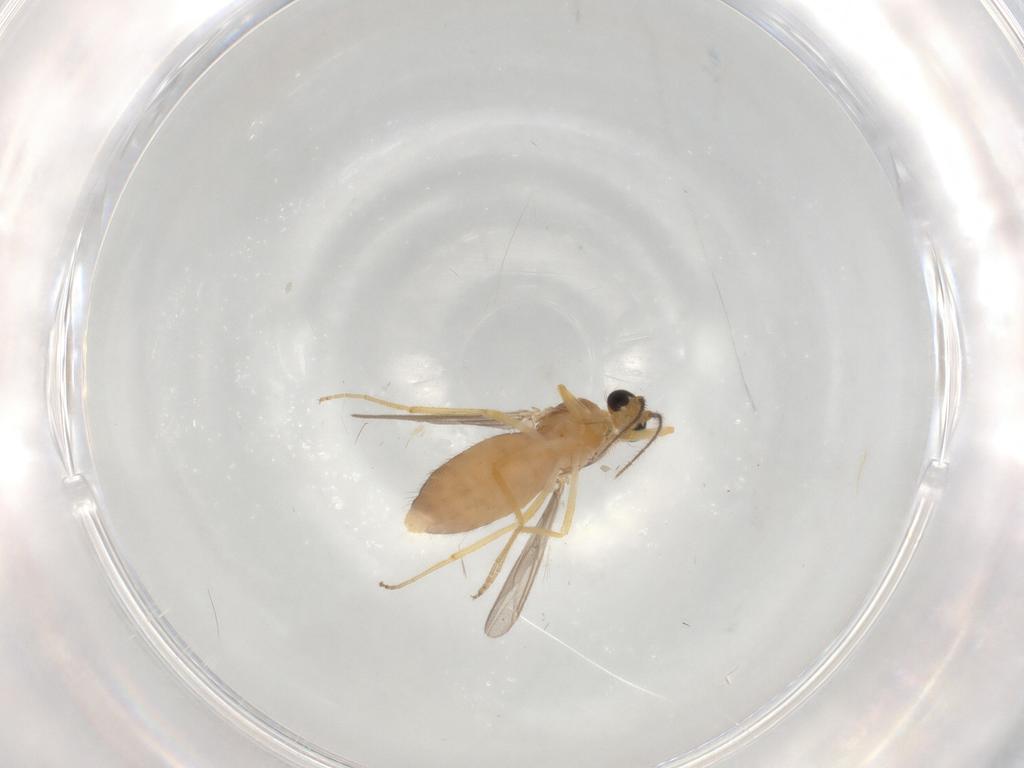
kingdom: Animalia
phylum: Arthropoda
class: Insecta
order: Diptera
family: Ceratopogonidae
